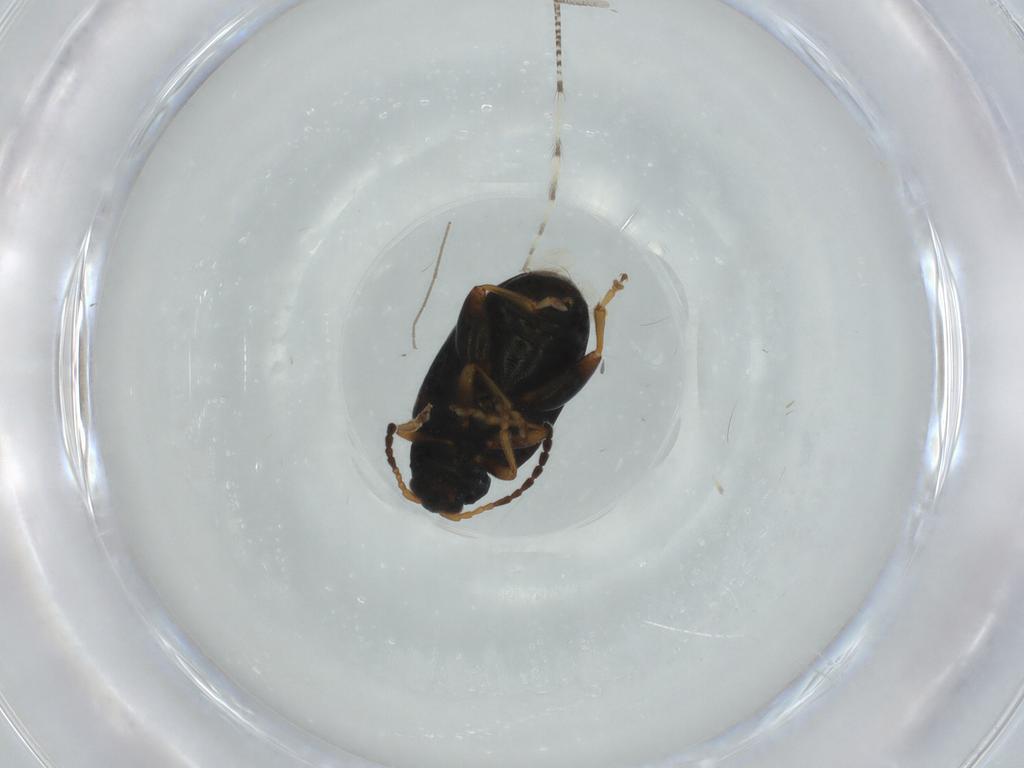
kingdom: Animalia
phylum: Arthropoda
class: Insecta
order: Coleoptera
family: Chrysomelidae
